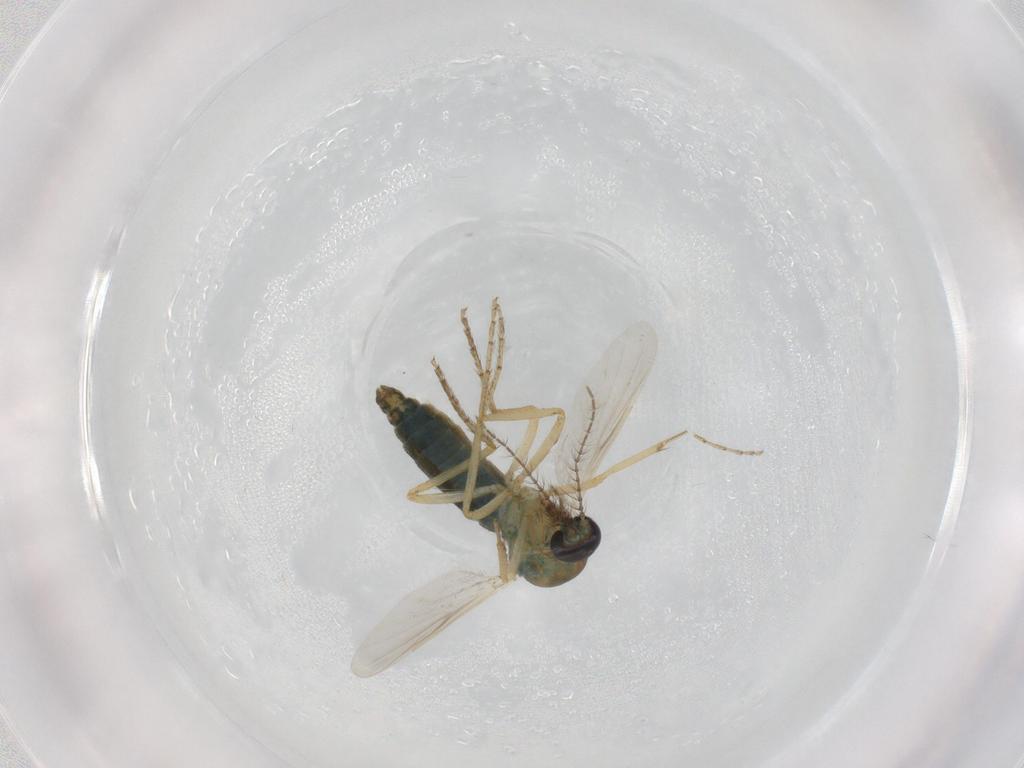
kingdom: Animalia
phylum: Arthropoda
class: Insecta
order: Diptera
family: Ceratopogonidae
